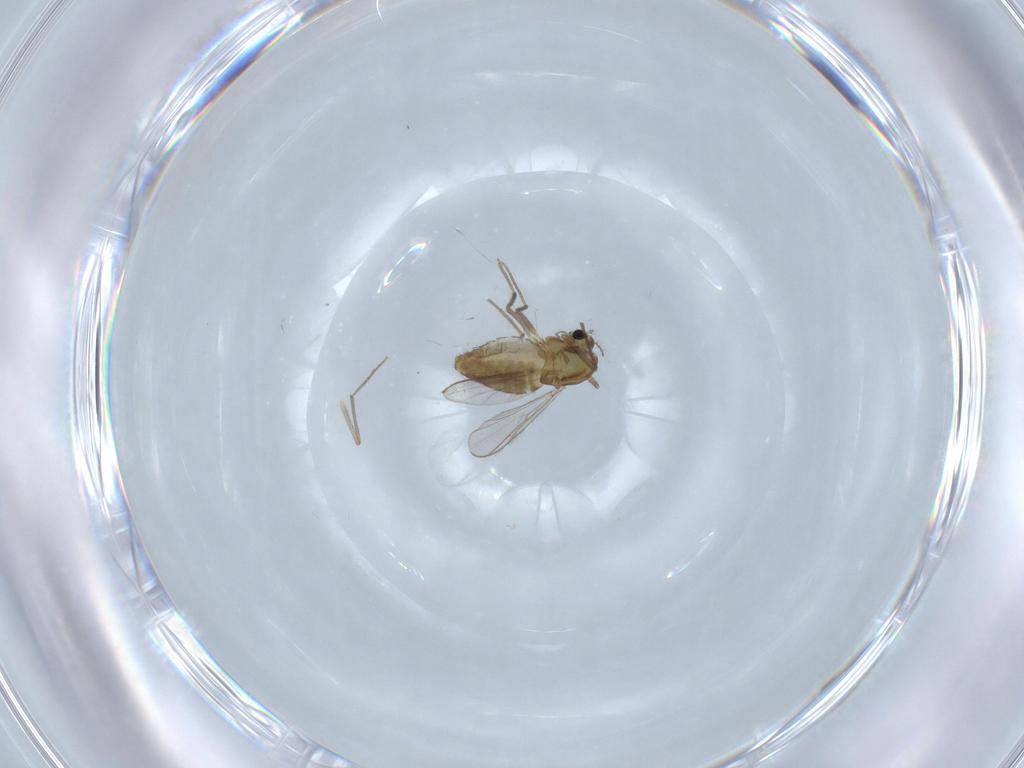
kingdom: Animalia
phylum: Arthropoda
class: Insecta
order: Diptera
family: Chironomidae
